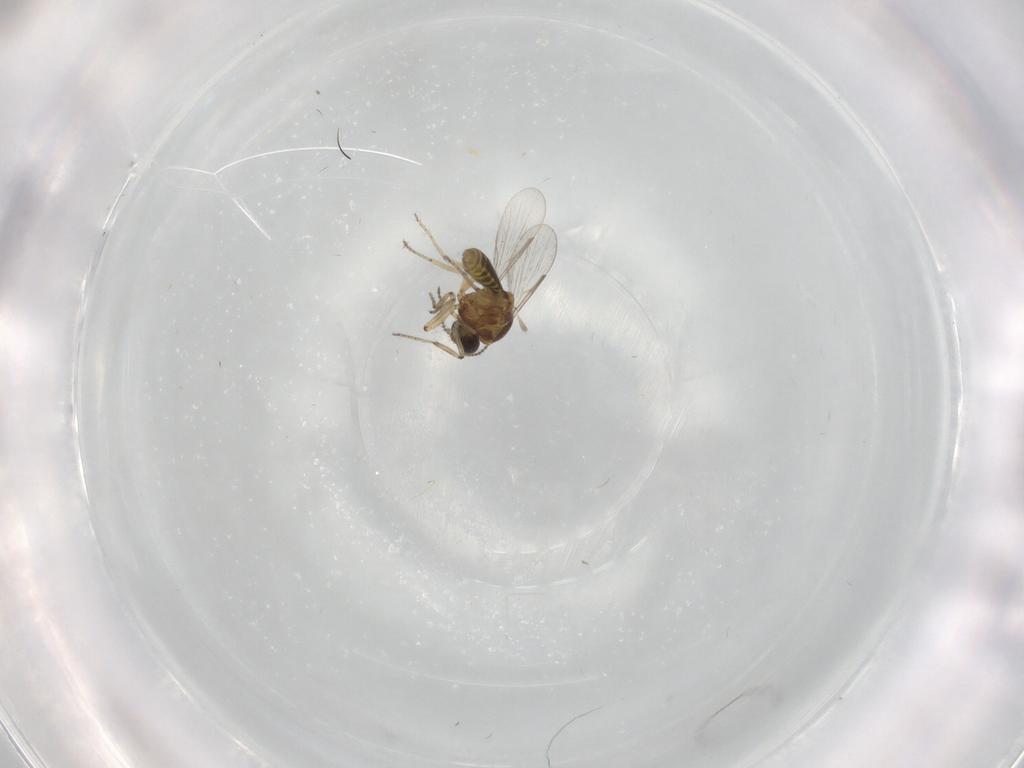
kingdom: Animalia
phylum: Arthropoda
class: Insecta
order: Diptera
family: Ceratopogonidae
